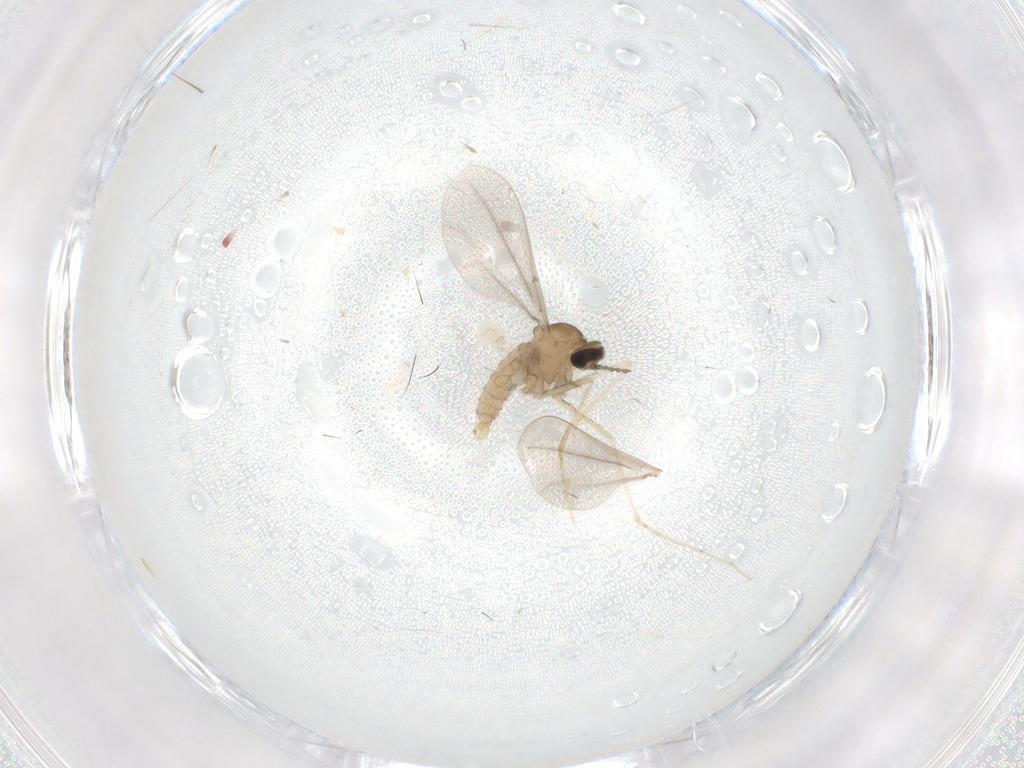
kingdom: Animalia
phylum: Arthropoda
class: Insecta
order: Diptera
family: Cecidomyiidae
